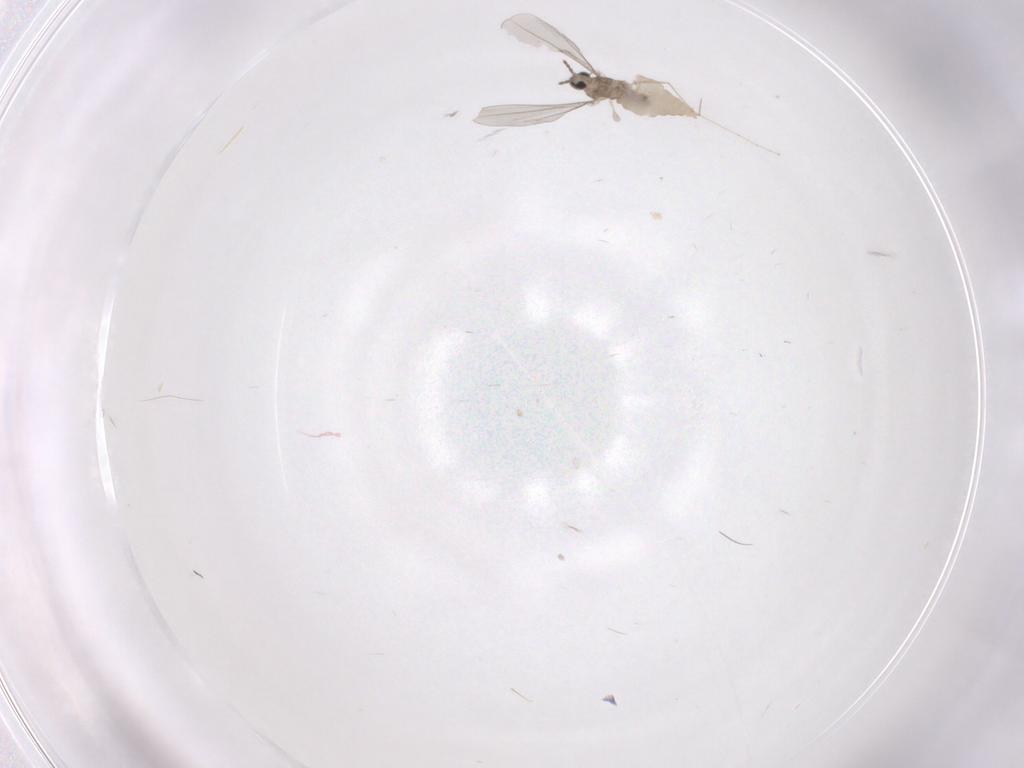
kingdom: Animalia
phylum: Arthropoda
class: Insecta
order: Diptera
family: Cecidomyiidae
